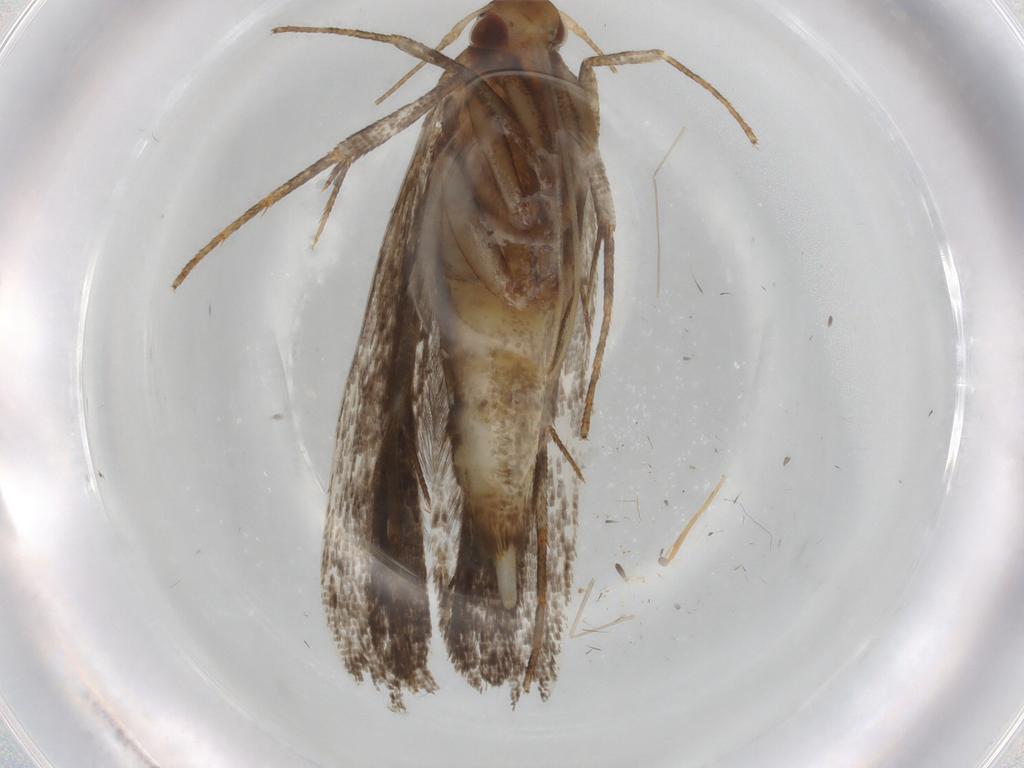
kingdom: Animalia
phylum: Arthropoda
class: Insecta
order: Lepidoptera
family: Gelechiidae
